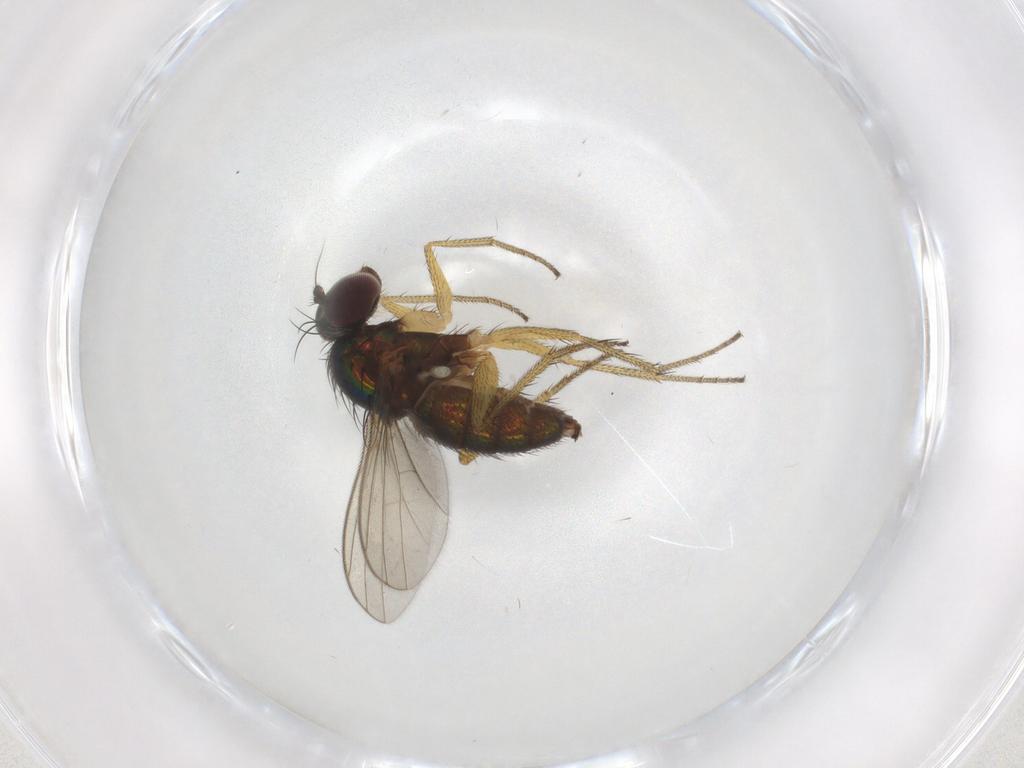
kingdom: Animalia
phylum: Arthropoda
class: Insecta
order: Diptera
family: Dolichopodidae
